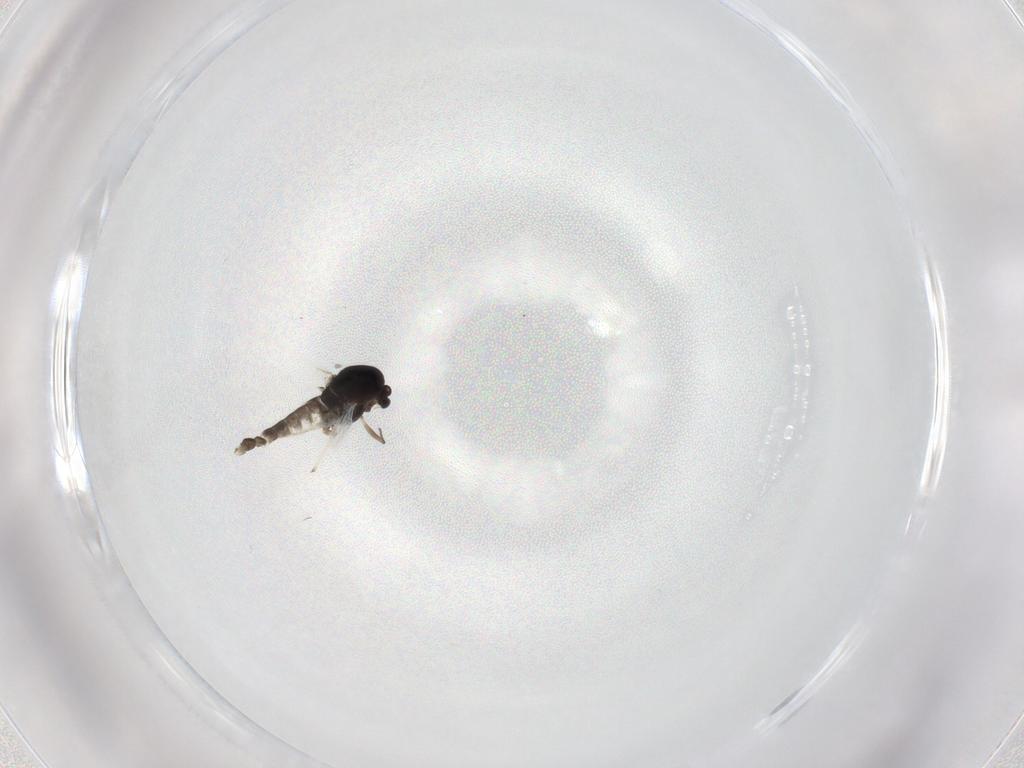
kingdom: Animalia
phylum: Arthropoda
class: Insecta
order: Diptera
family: Chironomidae
